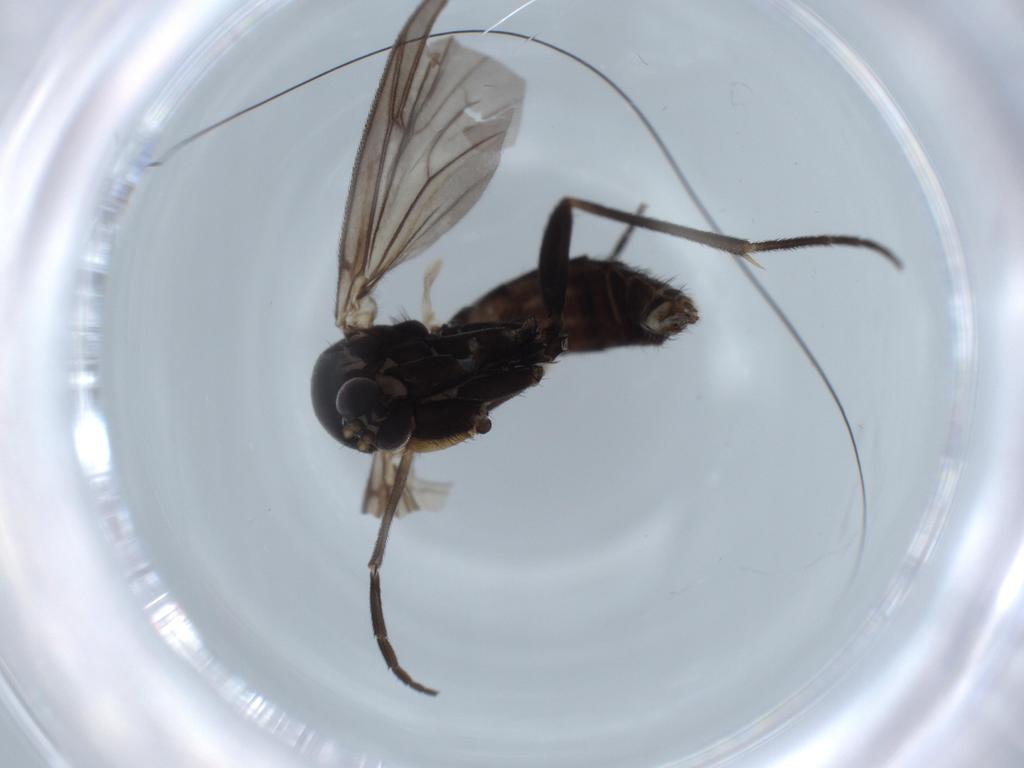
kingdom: Animalia
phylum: Arthropoda
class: Insecta
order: Diptera
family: Mycetophilidae
